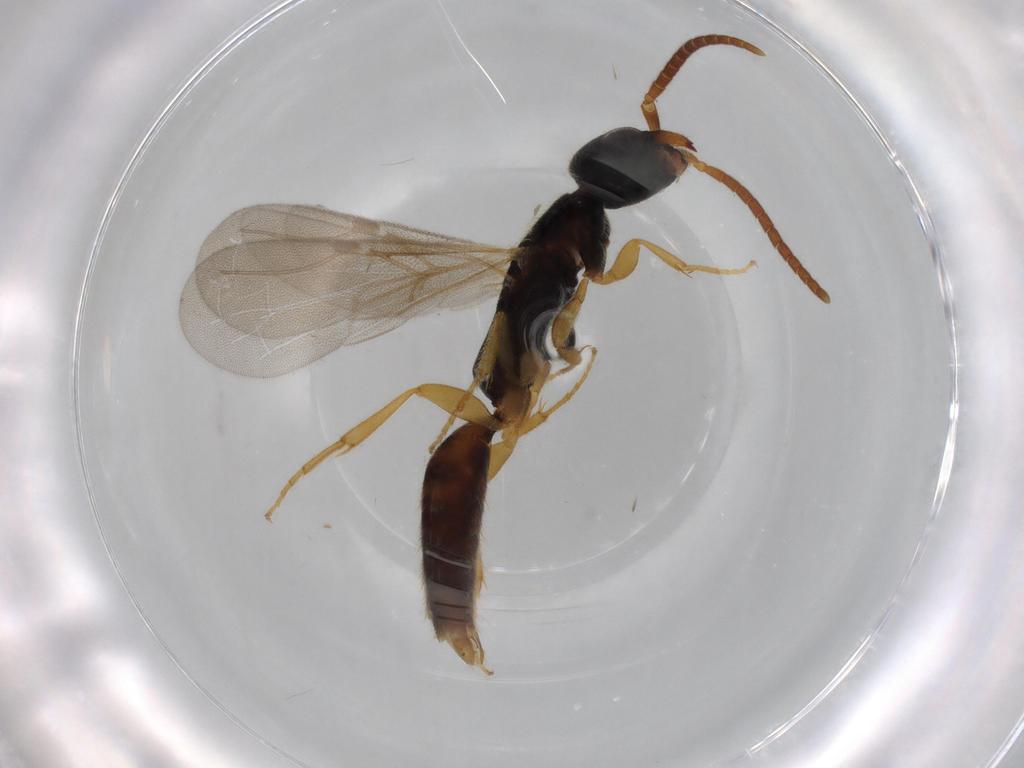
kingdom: Animalia
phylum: Arthropoda
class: Insecta
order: Hymenoptera
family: Bethylidae
